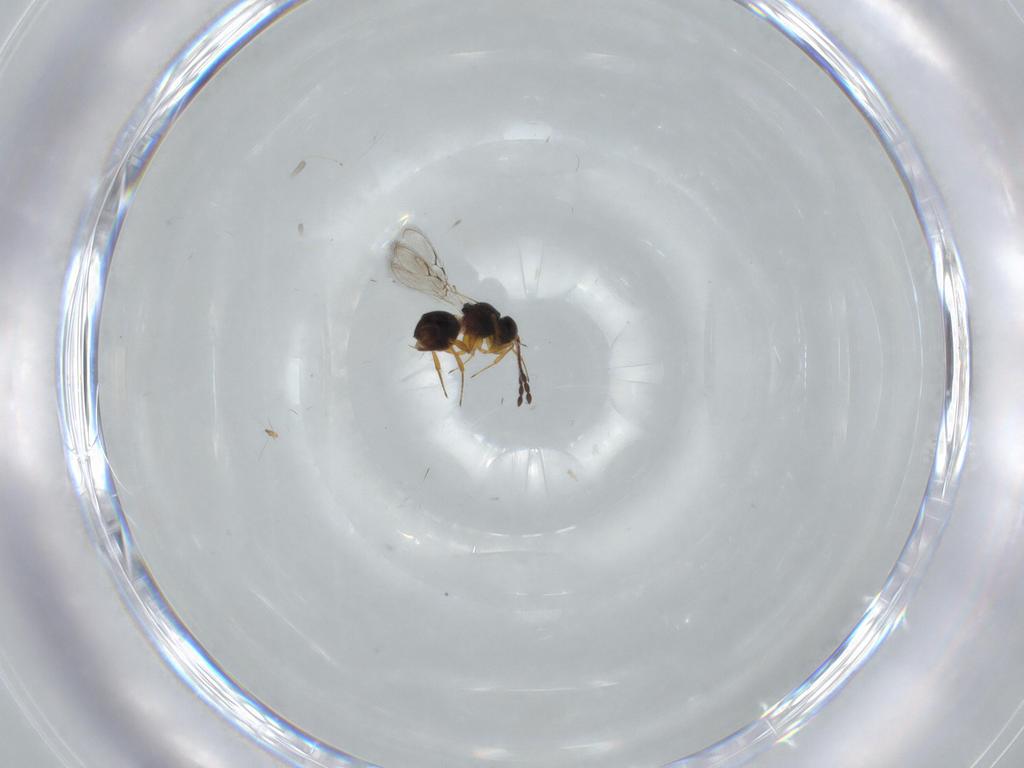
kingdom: Animalia
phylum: Arthropoda
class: Insecta
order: Hymenoptera
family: Figitidae
